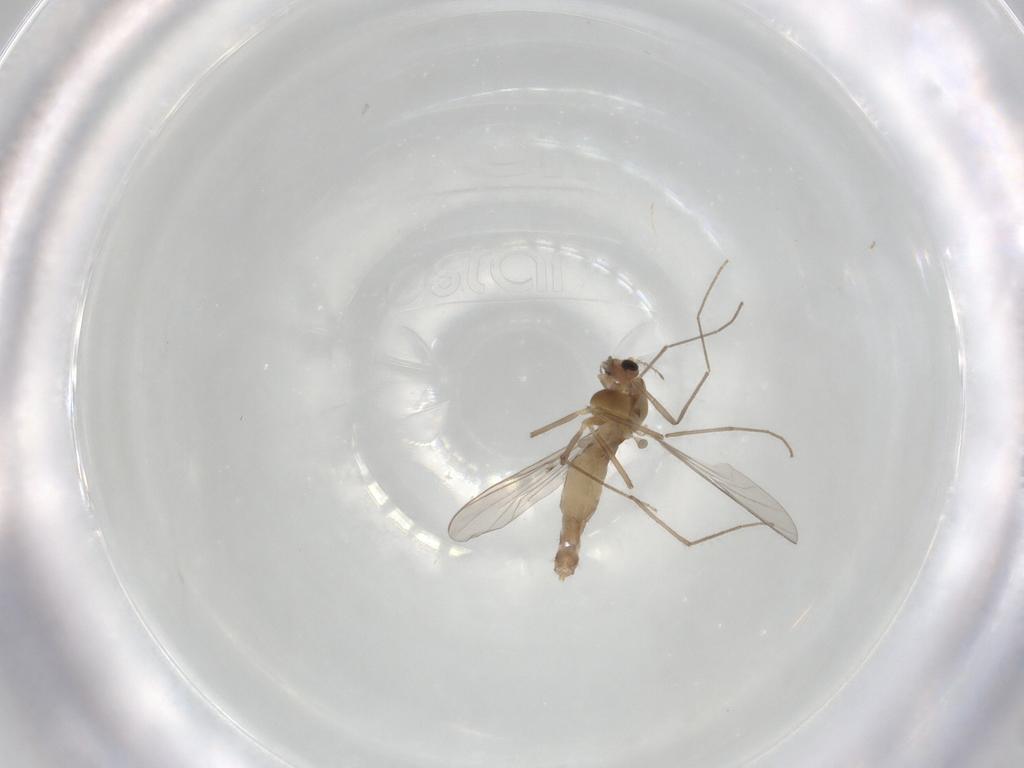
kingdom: Animalia
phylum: Arthropoda
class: Insecta
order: Diptera
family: Chironomidae
